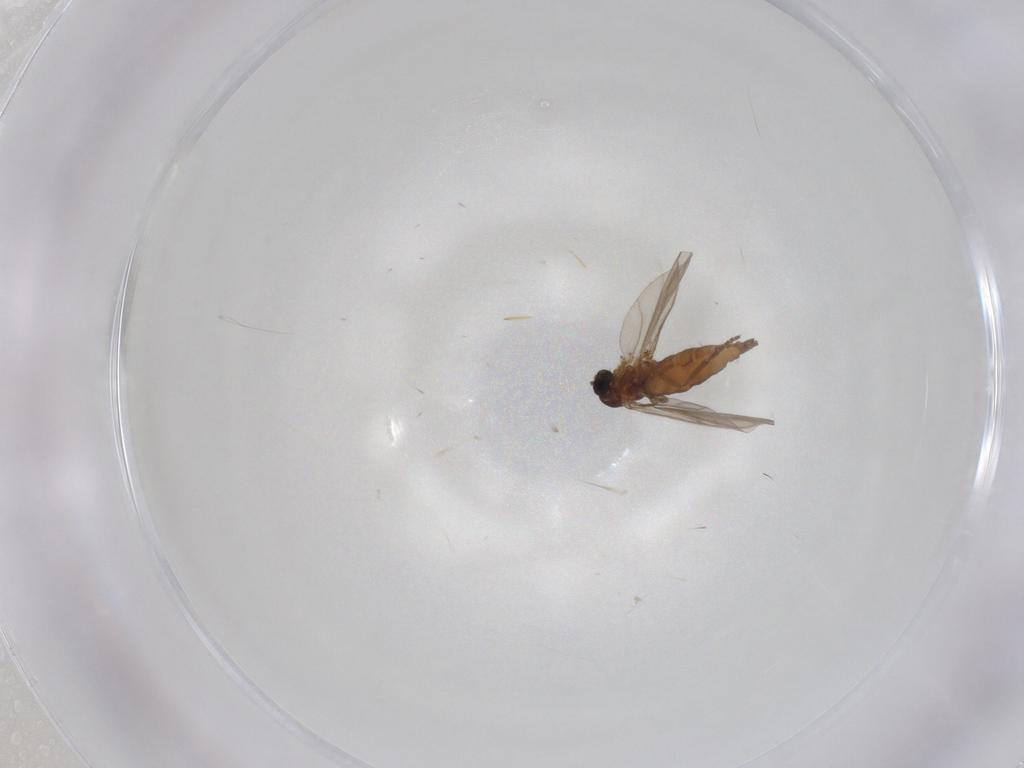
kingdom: Animalia
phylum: Arthropoda
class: Insecta
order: Diptera
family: Sciaridae
